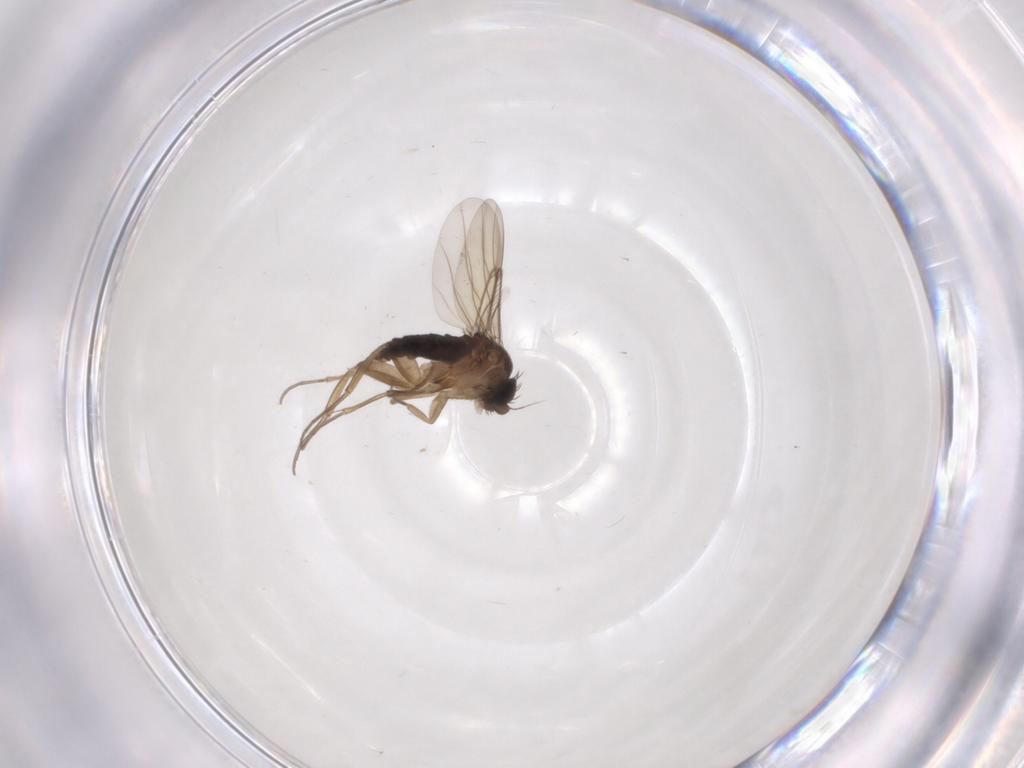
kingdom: Animalia
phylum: Arthropoda
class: Insecta
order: Diptera
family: Phoridae
